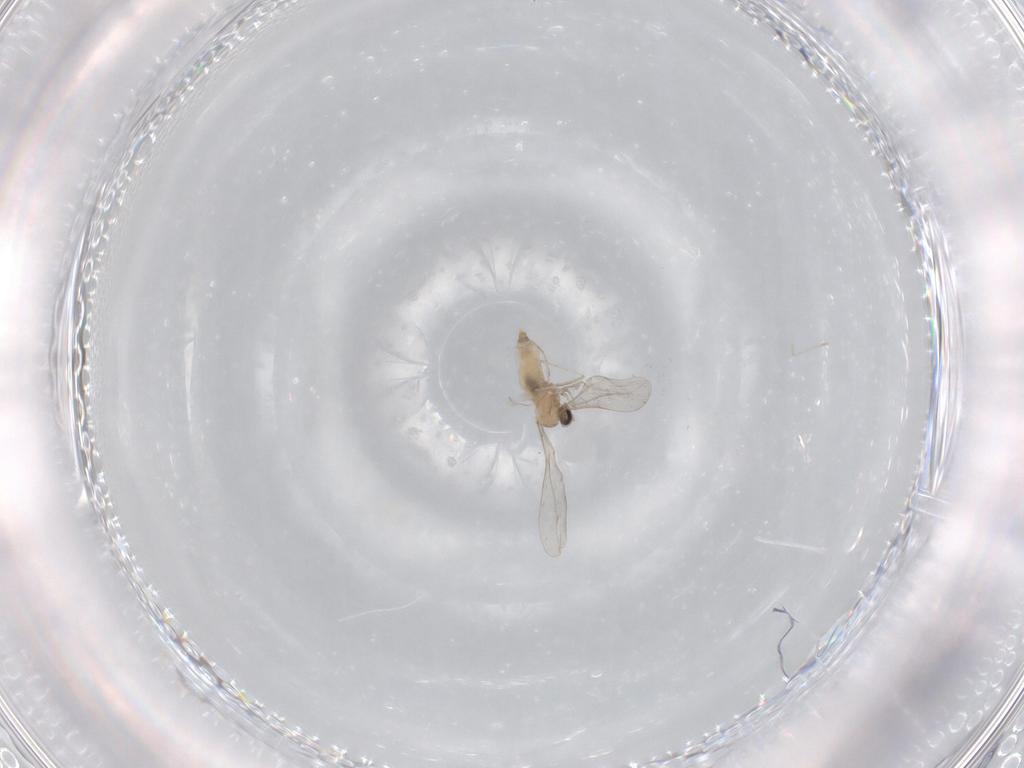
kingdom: Animalia
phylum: Arthropoda
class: Insecta
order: Diptera
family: Cecidomyiidae
